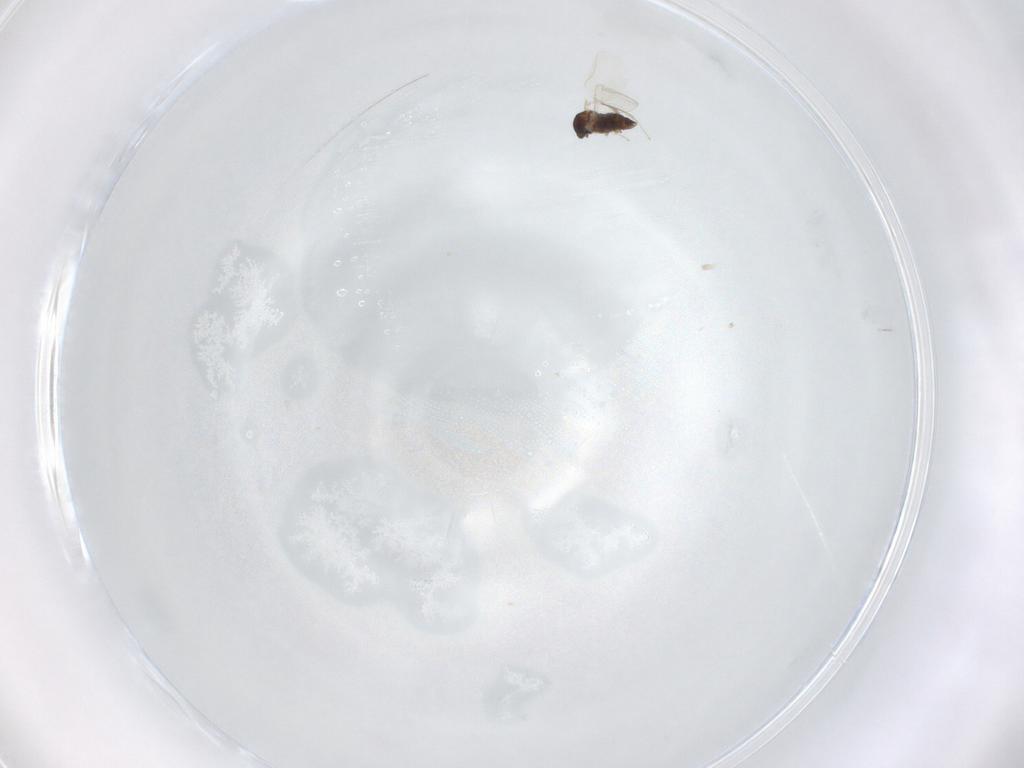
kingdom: Animalia
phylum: Arthropoda
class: Insecta
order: Diptera
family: Cecidomyiidae
